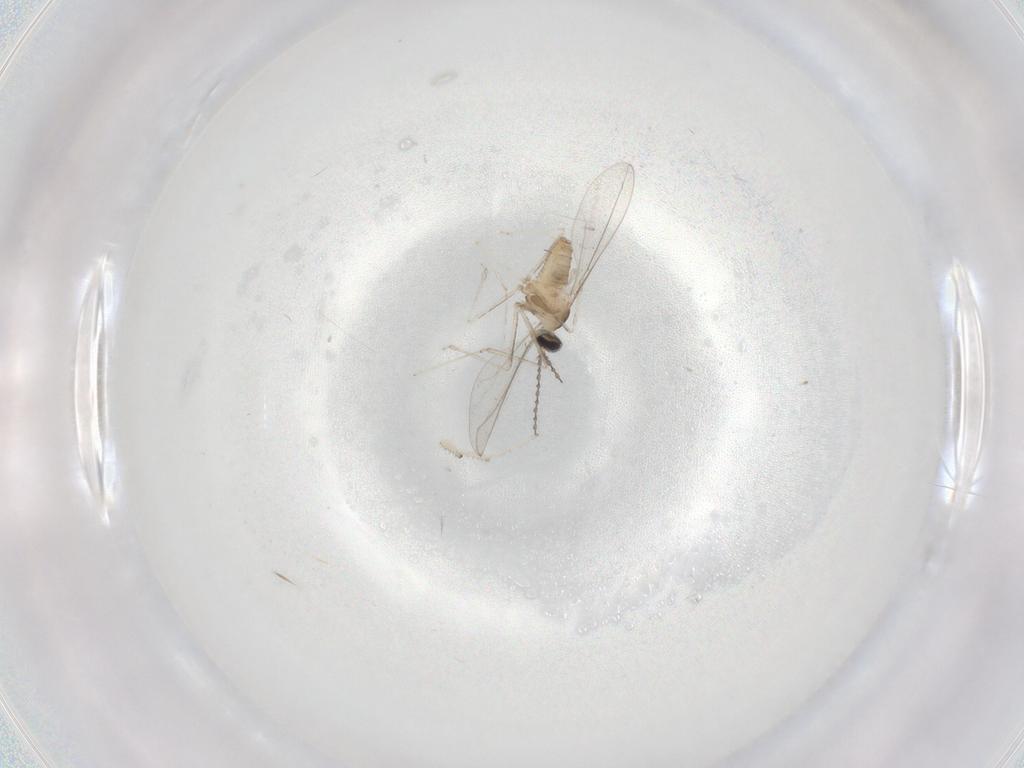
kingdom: Animalia
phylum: Arthropoda
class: Insecta
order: Diptera
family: Cecidomyiidae
